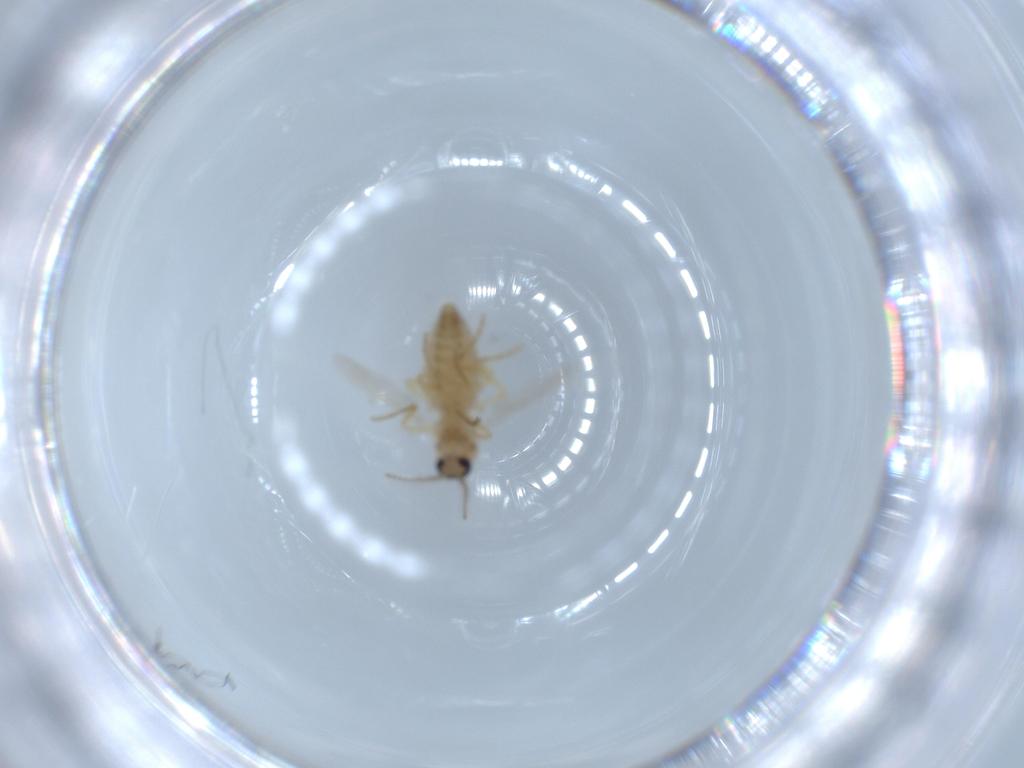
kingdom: Animalia
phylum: Arthropoda
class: Insecta
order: Diptera
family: Ceratopogonidae
